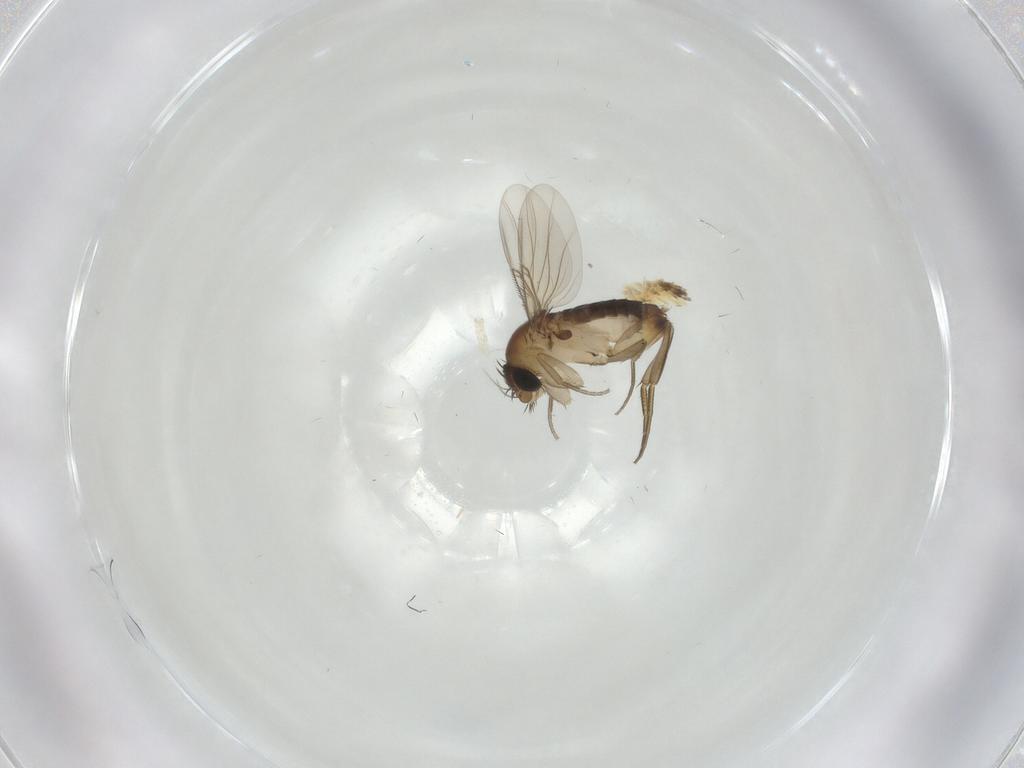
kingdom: Animalia
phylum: Arthropoda
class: Insecta
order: Diptera
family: Phoridae
